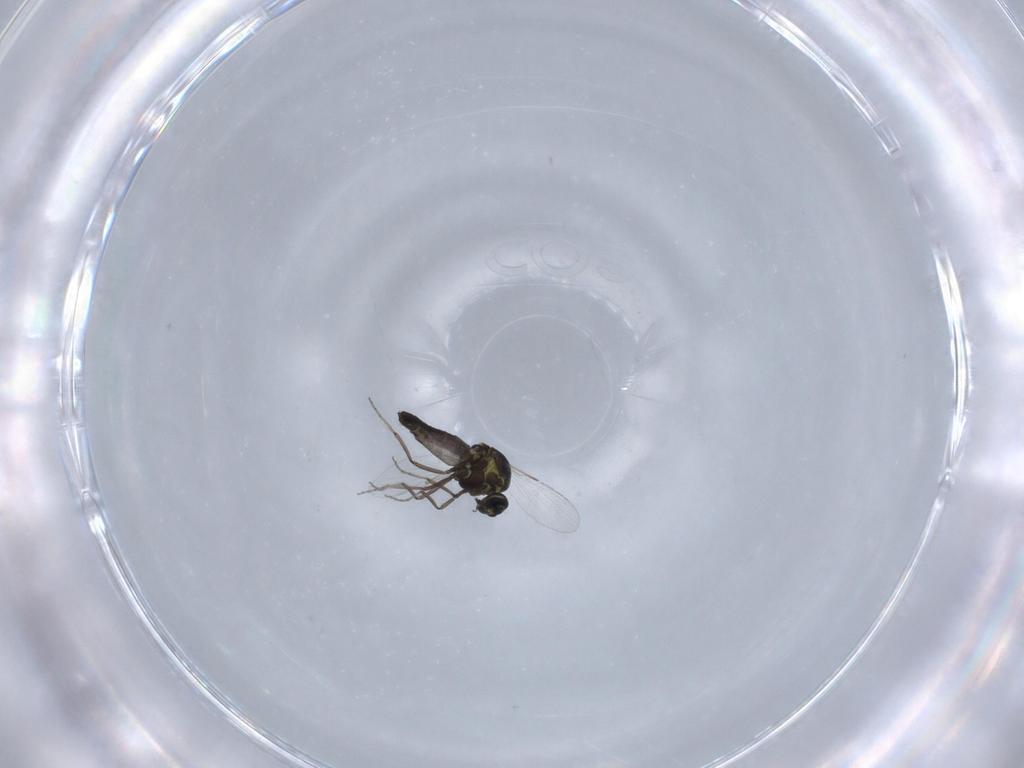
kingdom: Animalia
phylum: Arthropoda
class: Insecta
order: Diptera
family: Ceratopogonidae
